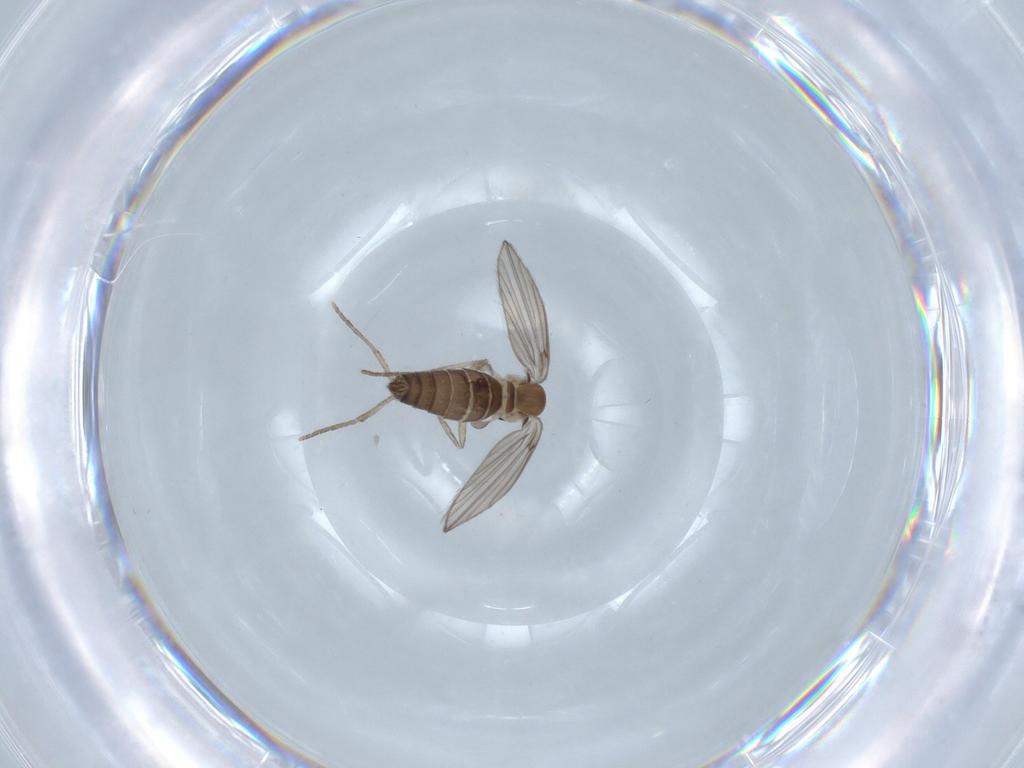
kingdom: Animalia
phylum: Arthropoda
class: Insecta
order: Diptera
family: Psychodidae
